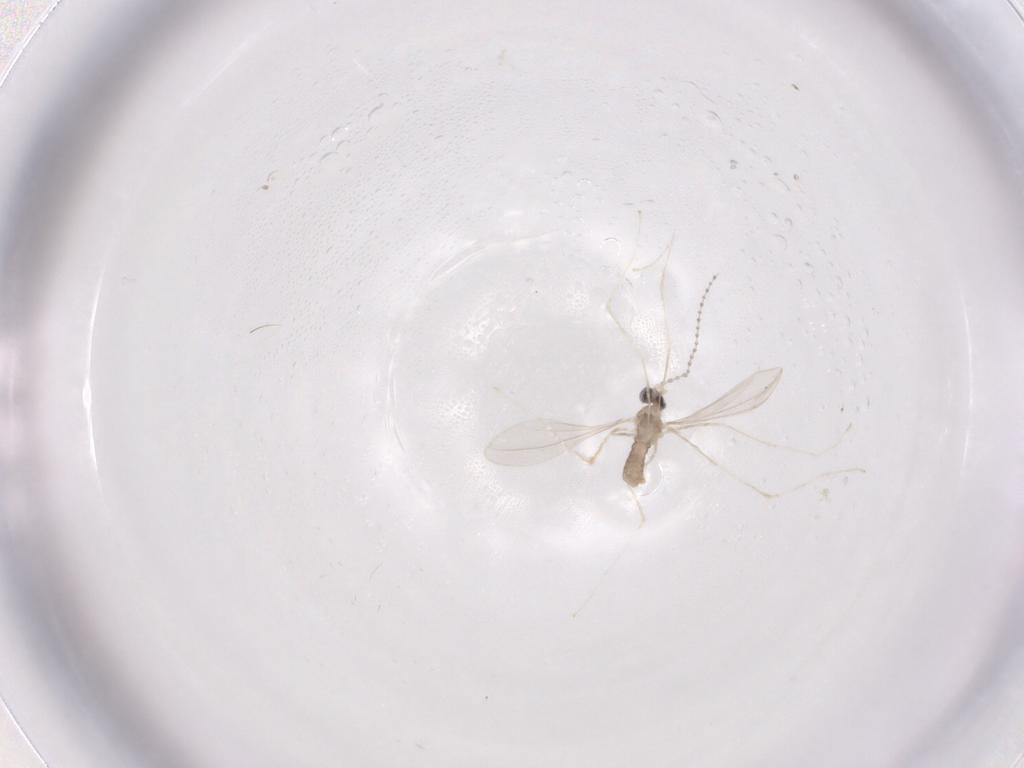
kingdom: Animalia
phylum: Arthropoda
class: Insecta
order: Diptera
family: Cecidomyiidae
